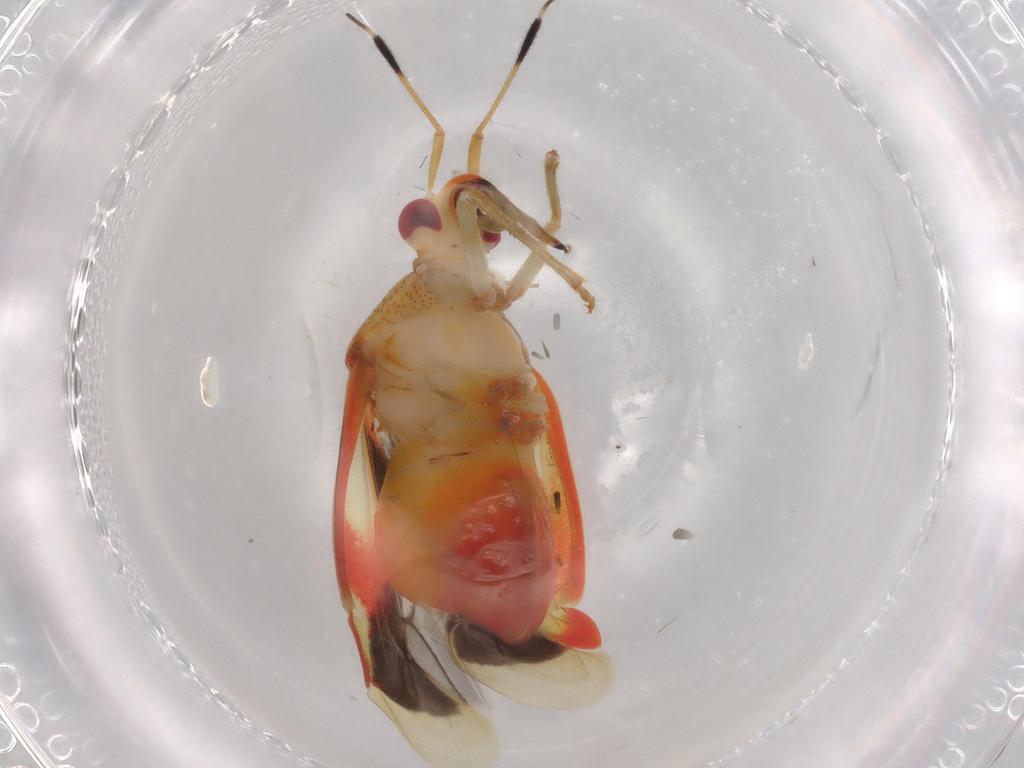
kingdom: Animalia
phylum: Arthropoda
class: Insecta
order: Hemiptera
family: Miridae
